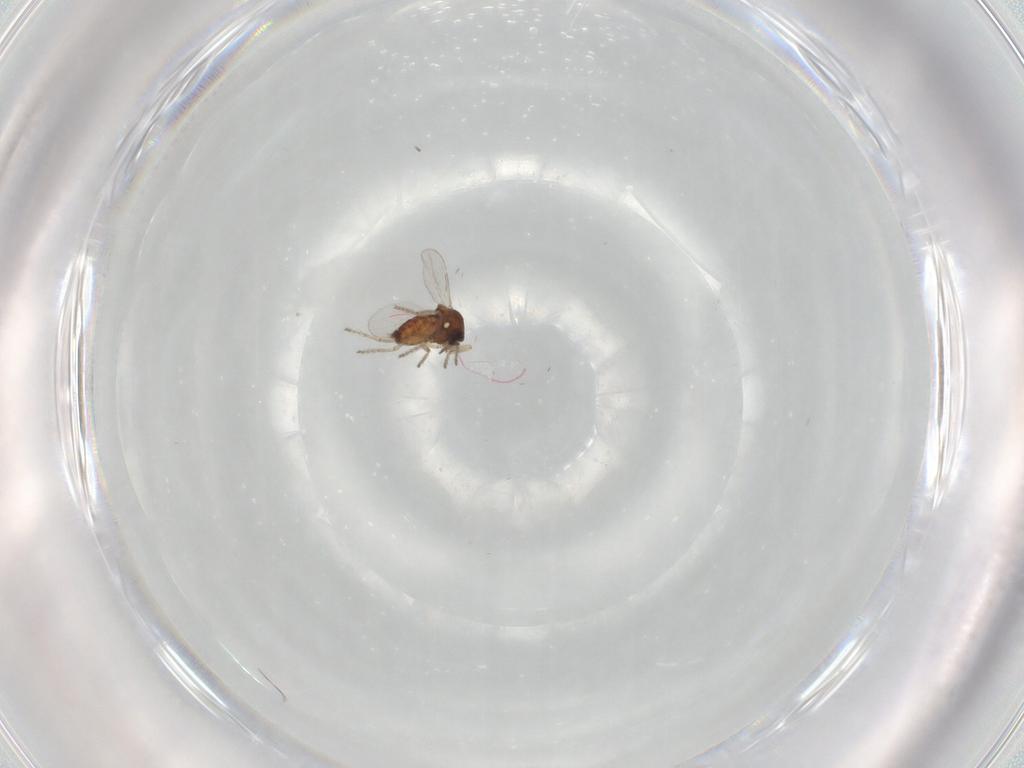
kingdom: Animalia
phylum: Arthropoda
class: Insecta
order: Diptera
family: Ceratopogonidae
